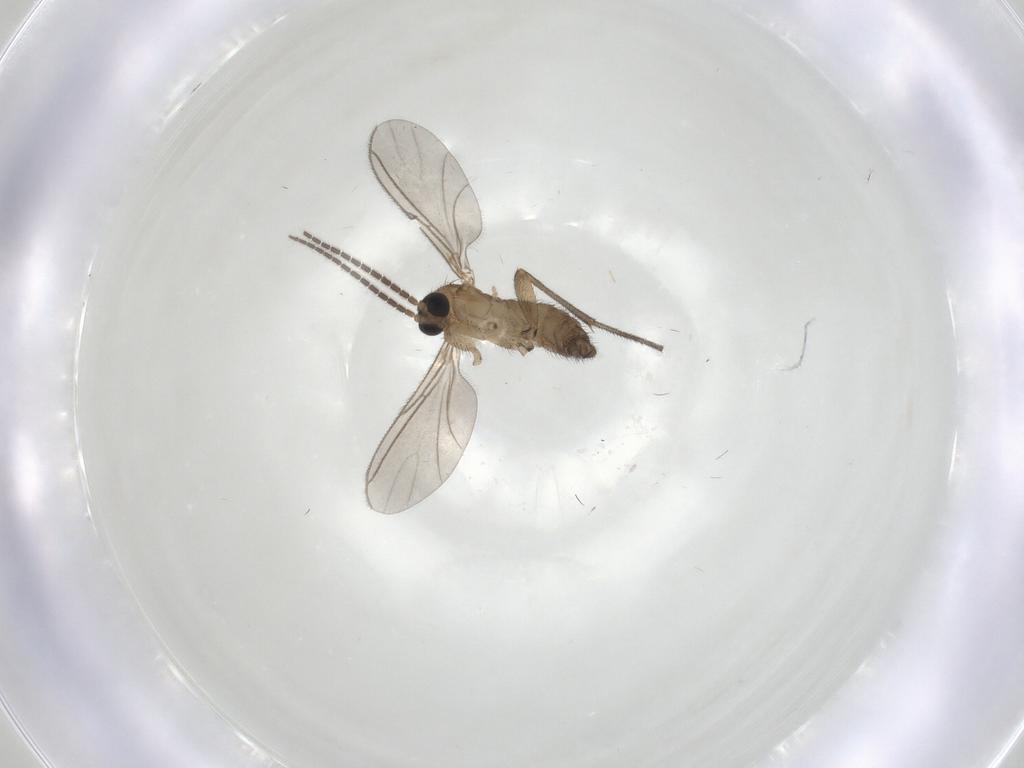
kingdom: Animalia
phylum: Arthropoda
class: Insecta
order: Diptera
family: Sciaridae
